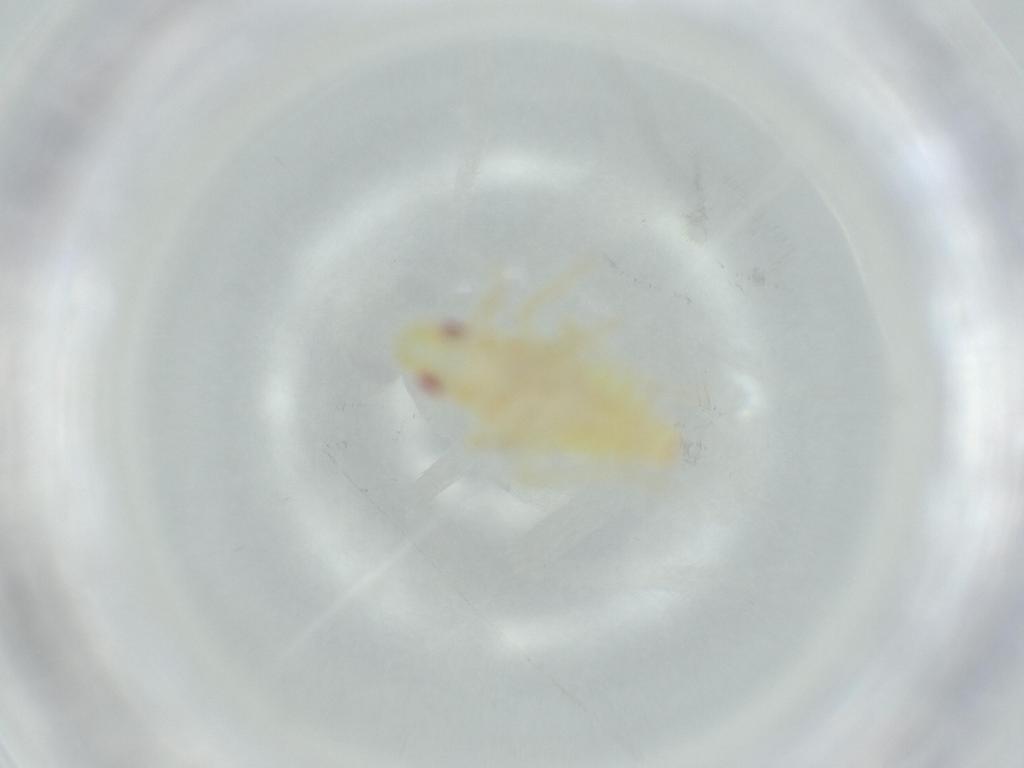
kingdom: Animalia
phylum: Arthropoda
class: Insecta
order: Hemiptera
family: Tropiduchidae
